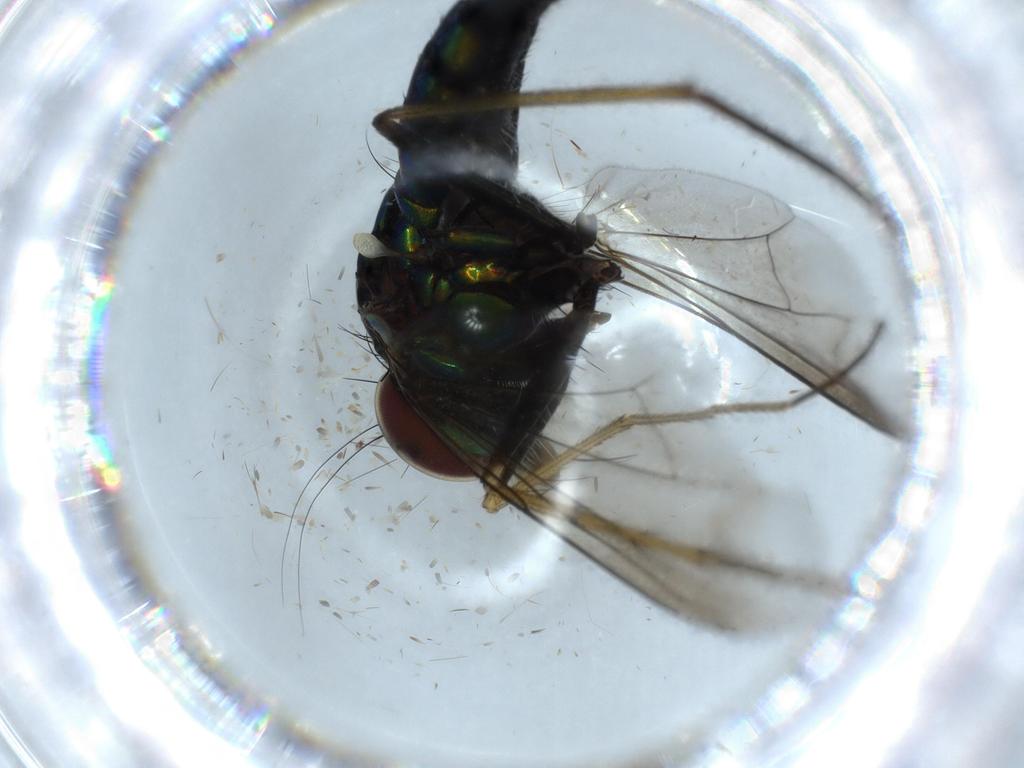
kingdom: Animalia
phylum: Arthropoda
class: Insecta
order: Diptera
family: Dolichopodidae
